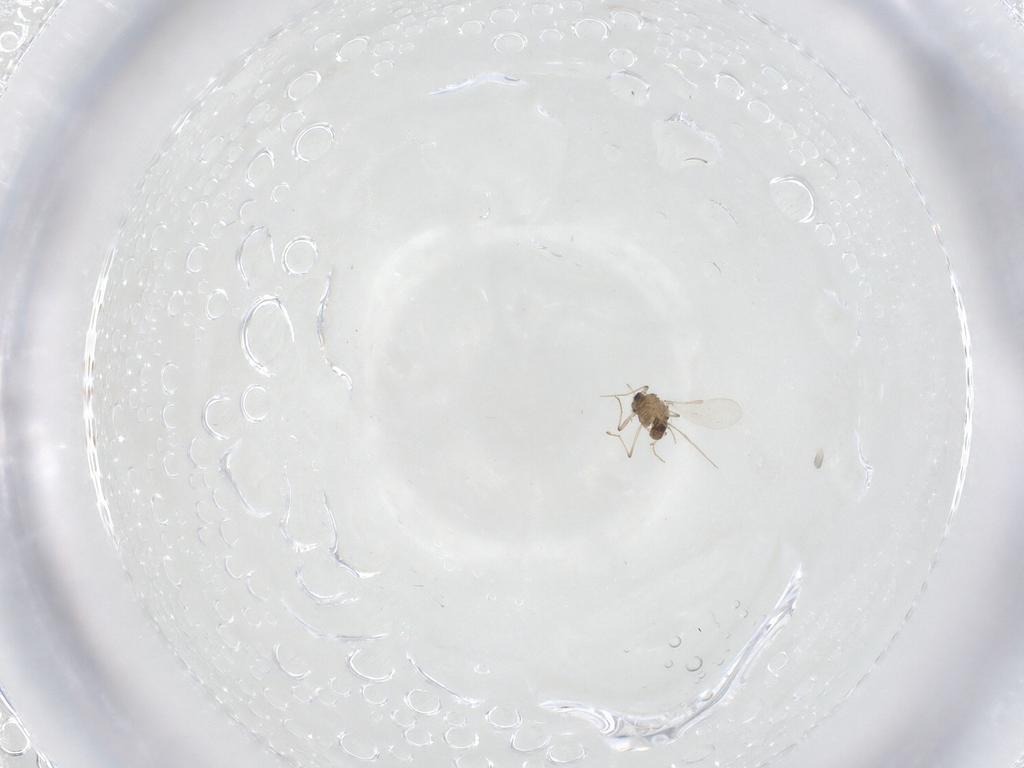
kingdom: Animalia
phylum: Arthropoda
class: Insecta
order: Diptera
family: Chironomidae
